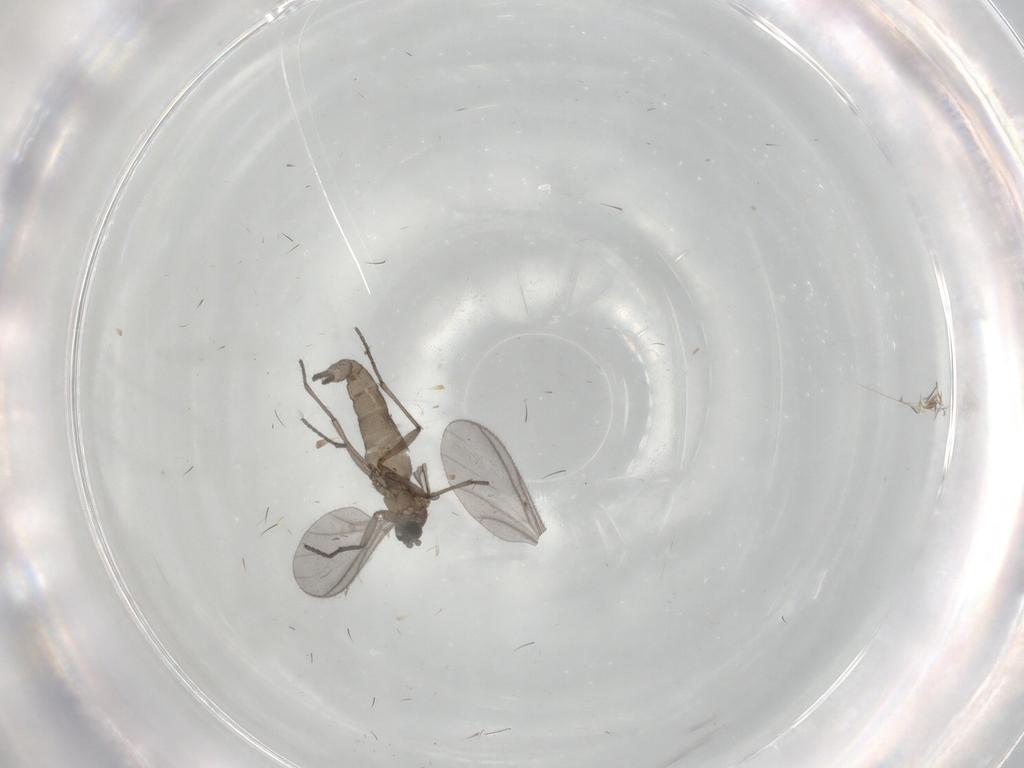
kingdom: Animalia
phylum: Arthropoda
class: Insecta
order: Diptera
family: Sciaridae
